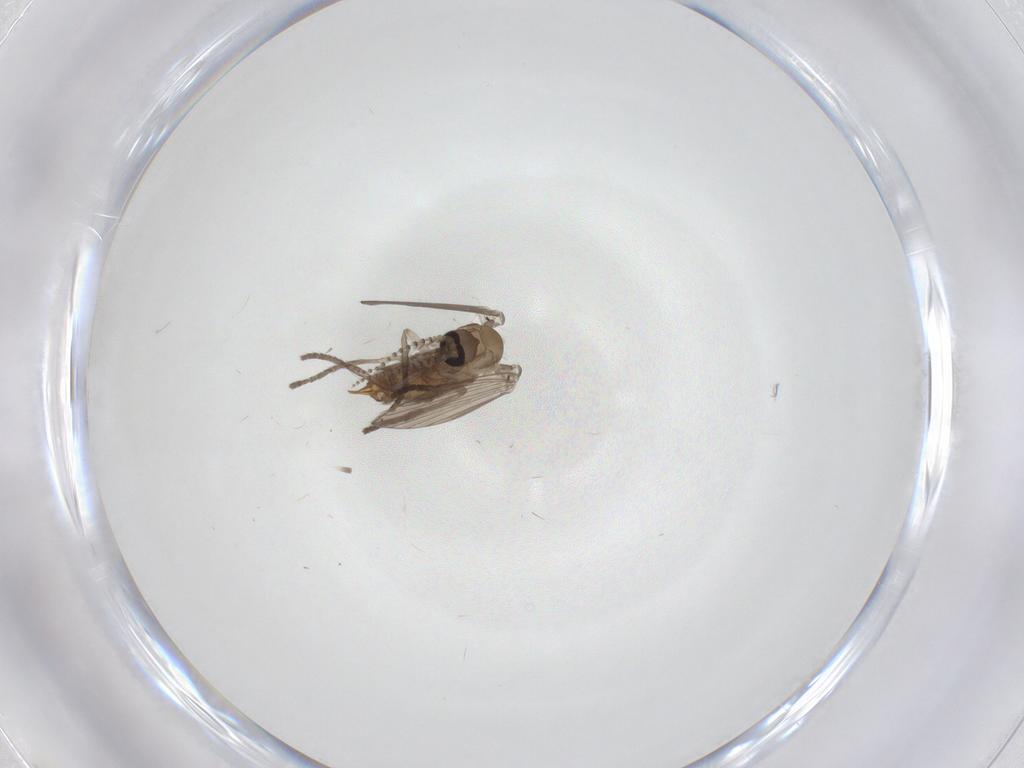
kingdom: Animalia
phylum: Arthropoda
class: Insecta
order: Diptera
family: Psychodidae
